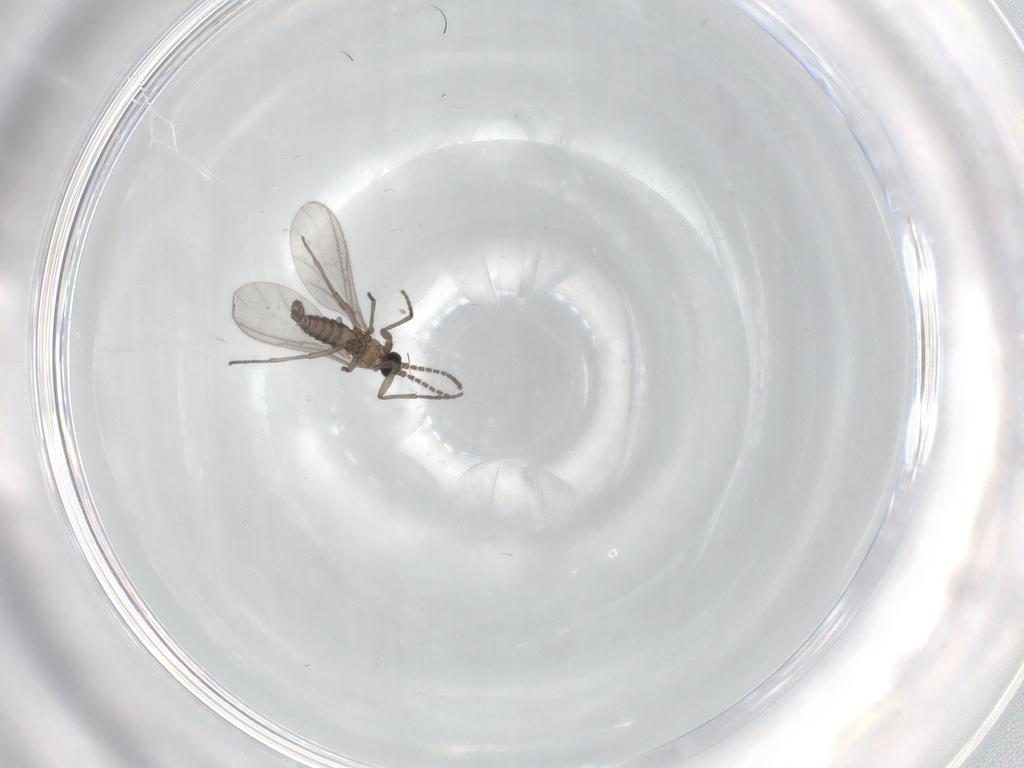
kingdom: Animalia
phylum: Arthropoda
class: Insecta
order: Diptera
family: Sciaridae
